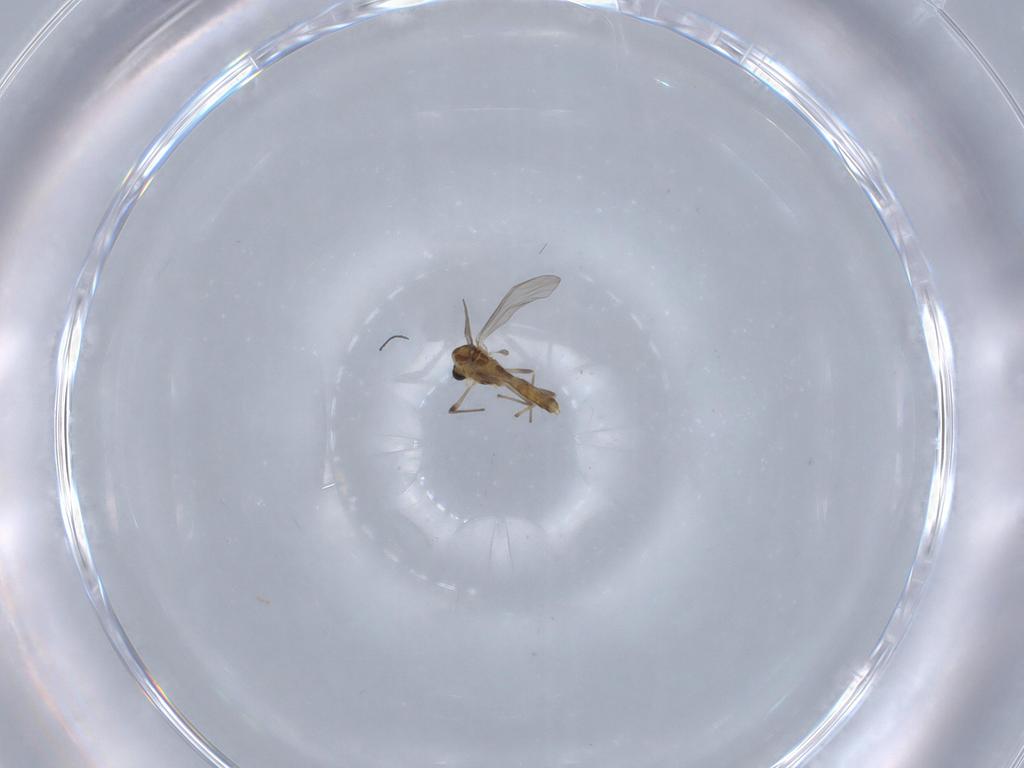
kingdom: Animalia
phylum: Arthropoda
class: Insecta
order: Diptera
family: Chironomidae
